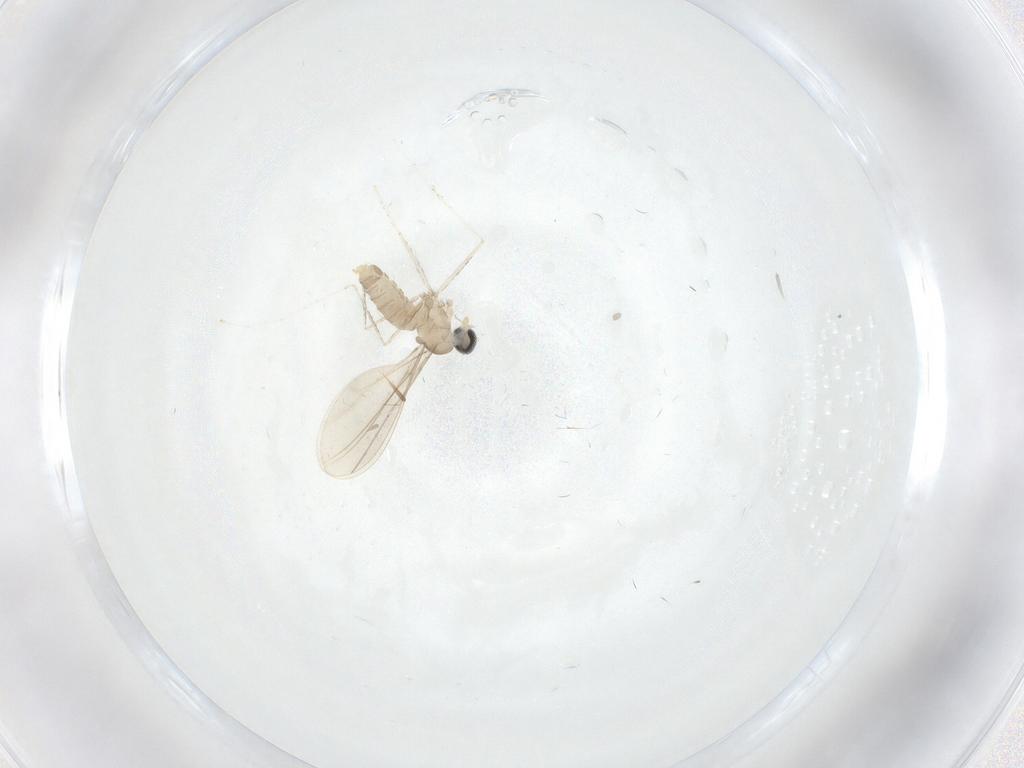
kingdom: Animalia
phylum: Arthropoda
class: Insecta
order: Diptera
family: Cecidomyiidae
